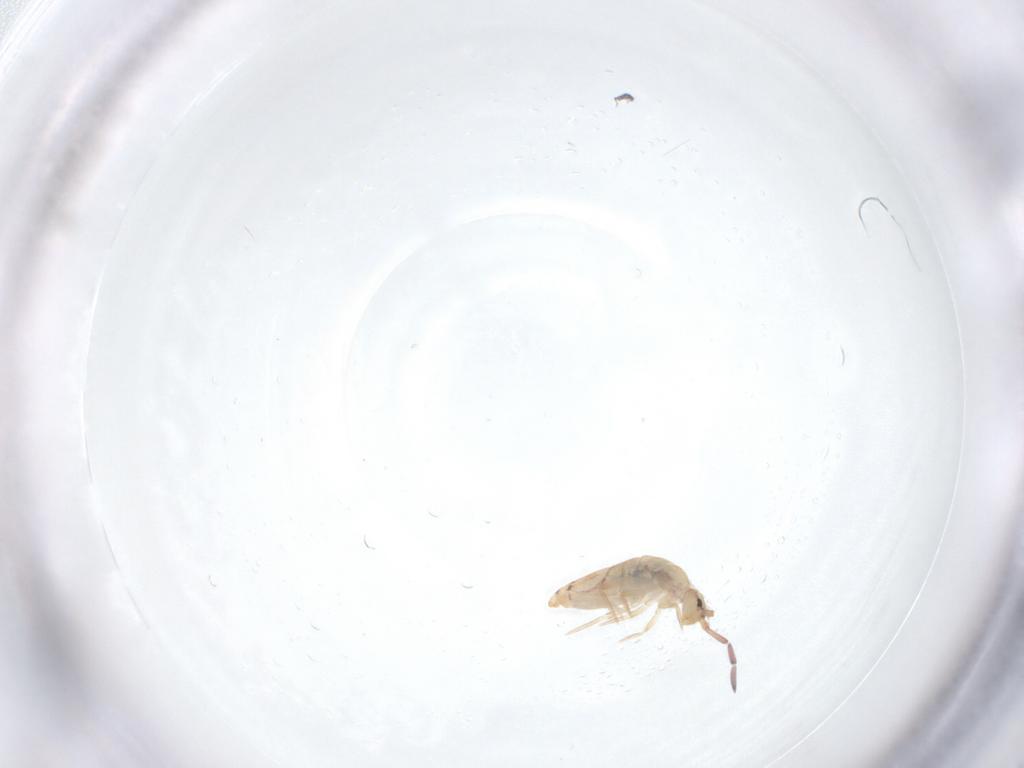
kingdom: Animalia
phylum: Arthropoda
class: Collembola
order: Entomobryomorpha
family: Entomobryidae
